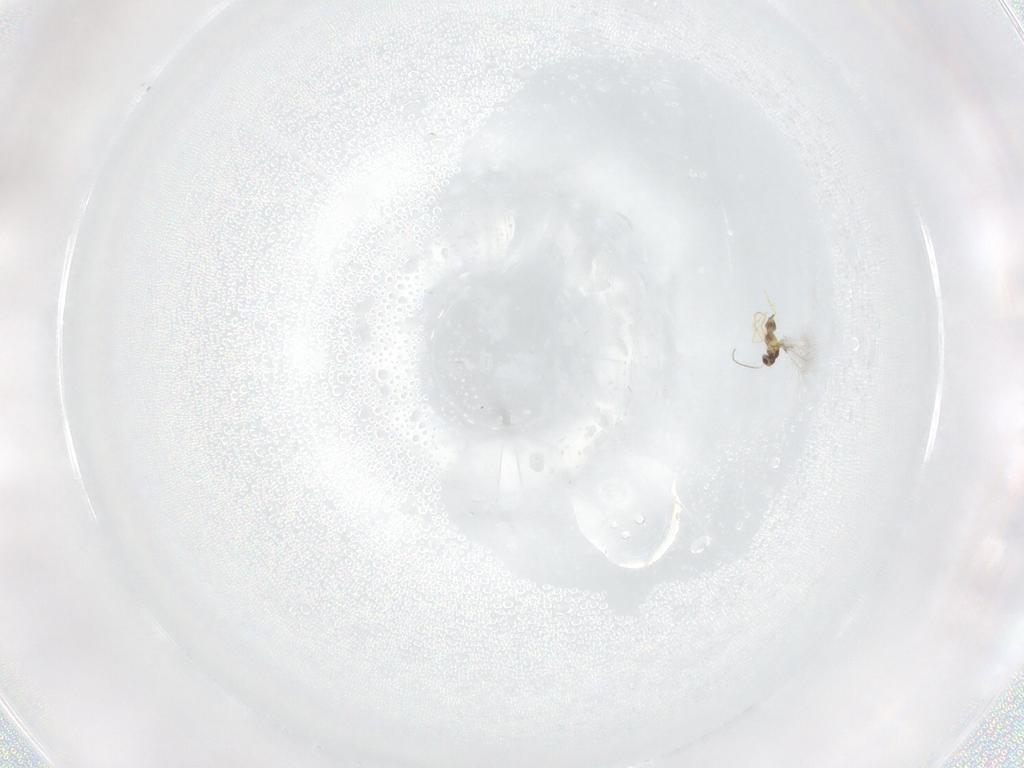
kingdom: Animalia
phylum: Arthropoda
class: Insecta
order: Hymenoptera
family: Mymaridae
